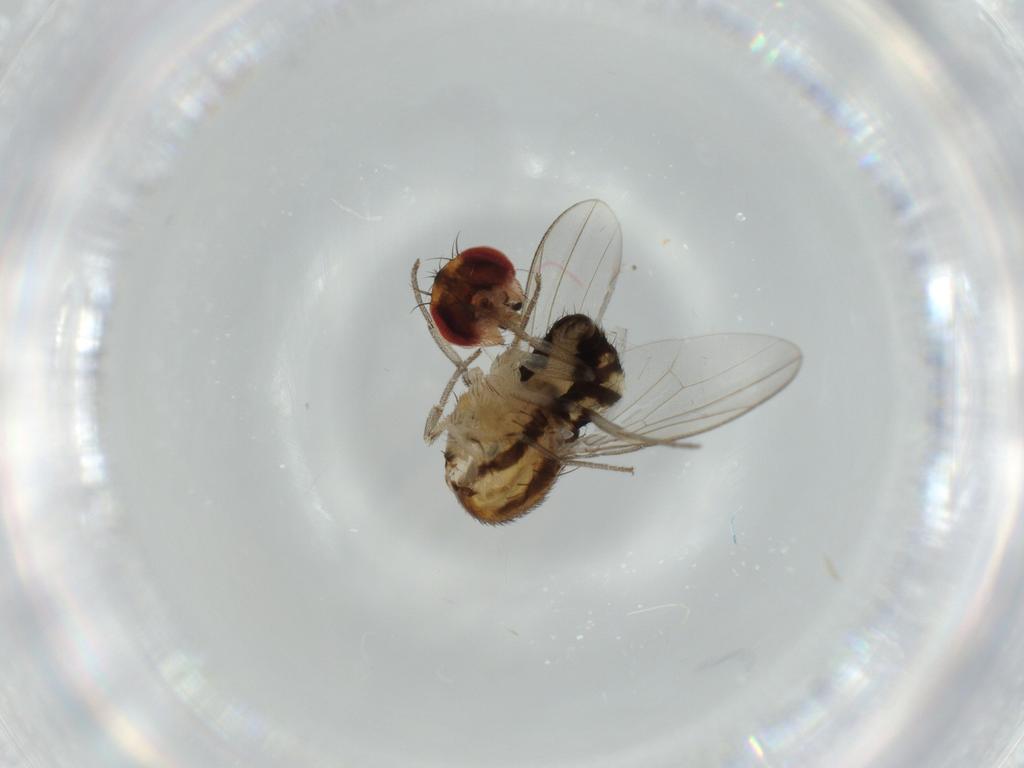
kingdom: Animalia
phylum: Arthropoda
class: Insecta
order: Diptera
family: Drosophilidae
